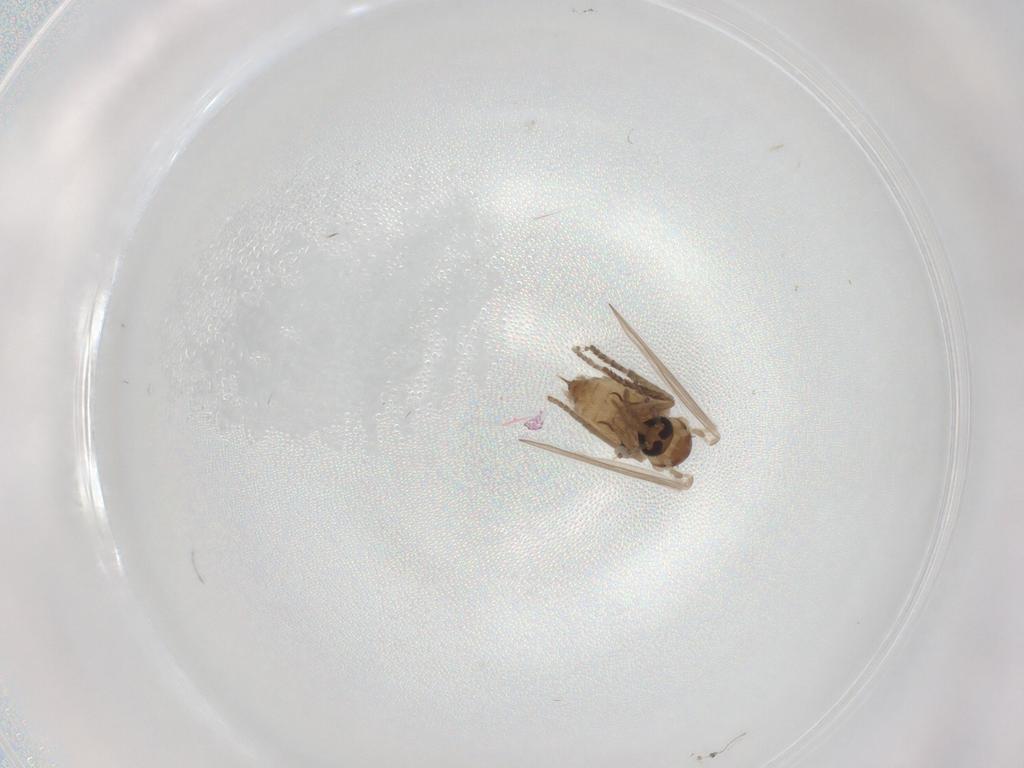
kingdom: Animalia
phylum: Arthropoda
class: Insecta
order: Diptera
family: Psychodidae
